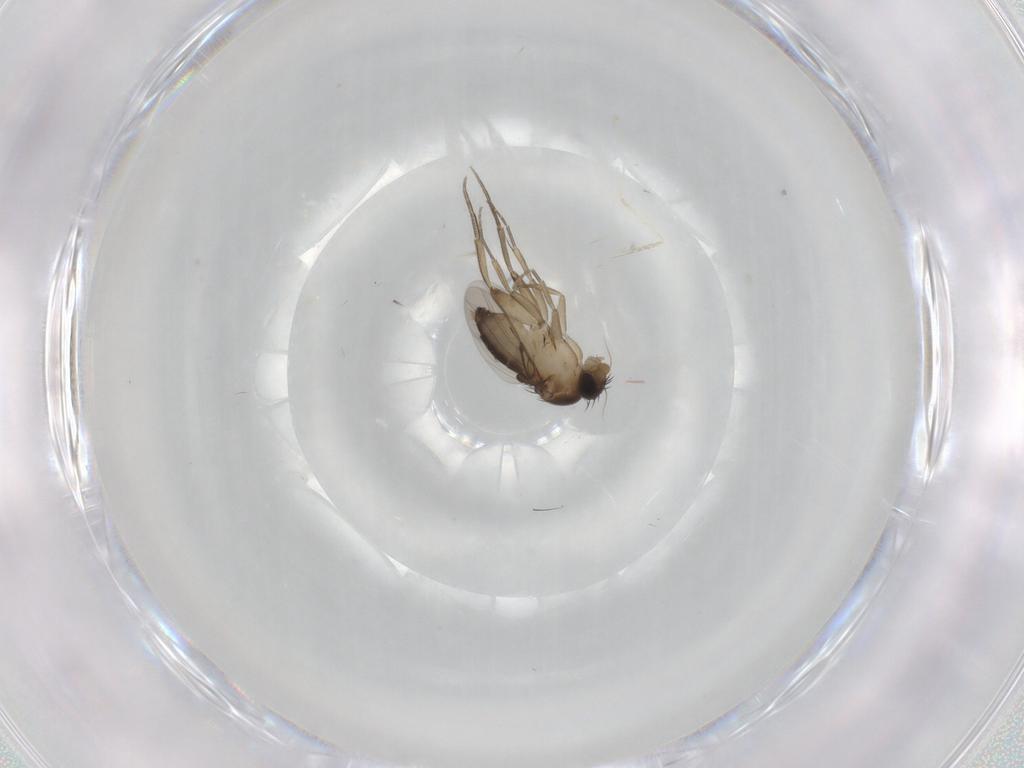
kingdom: Animalia
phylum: Arthropoda
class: Insecta
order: Diptera
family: Phoridae
